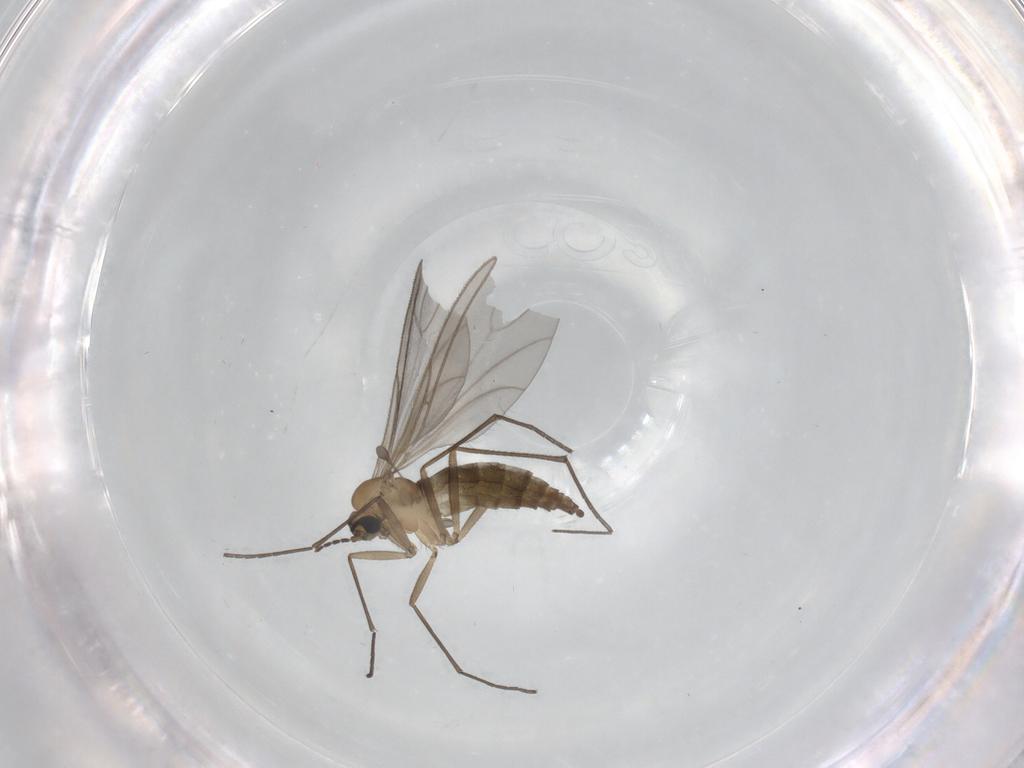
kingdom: Animalia
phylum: Arthropoda
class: Insecta
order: Diptera
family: Sciaridae
